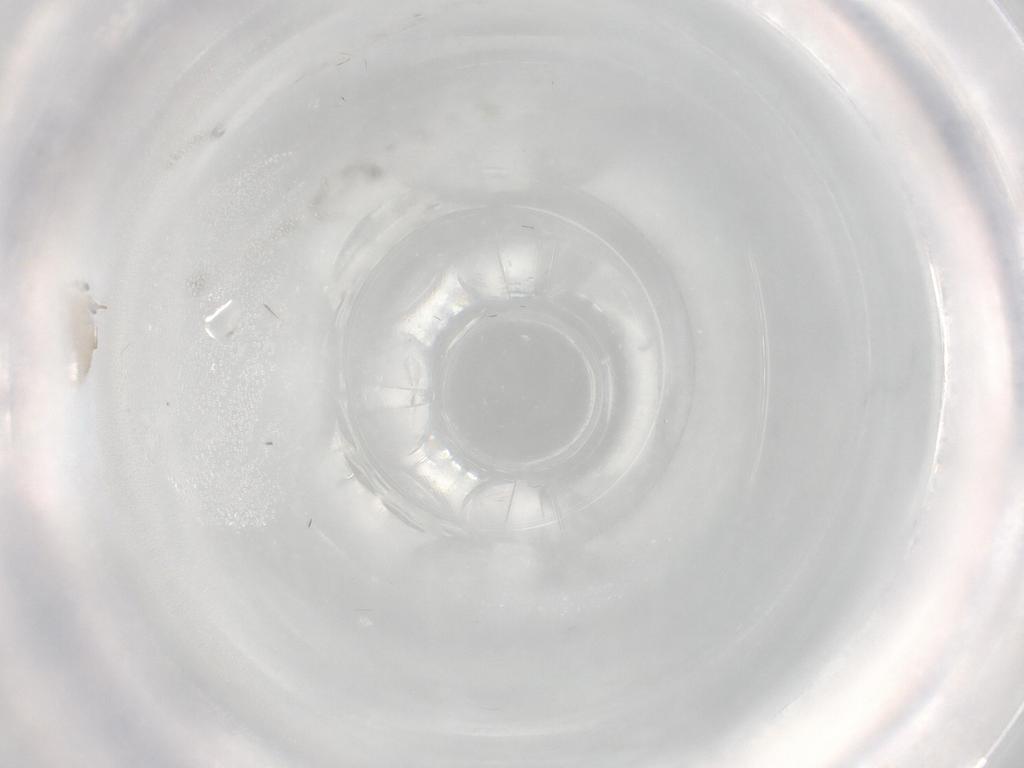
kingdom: Animalia
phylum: Arthropoda
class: Insecta
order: Diptera
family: Chironomidae
